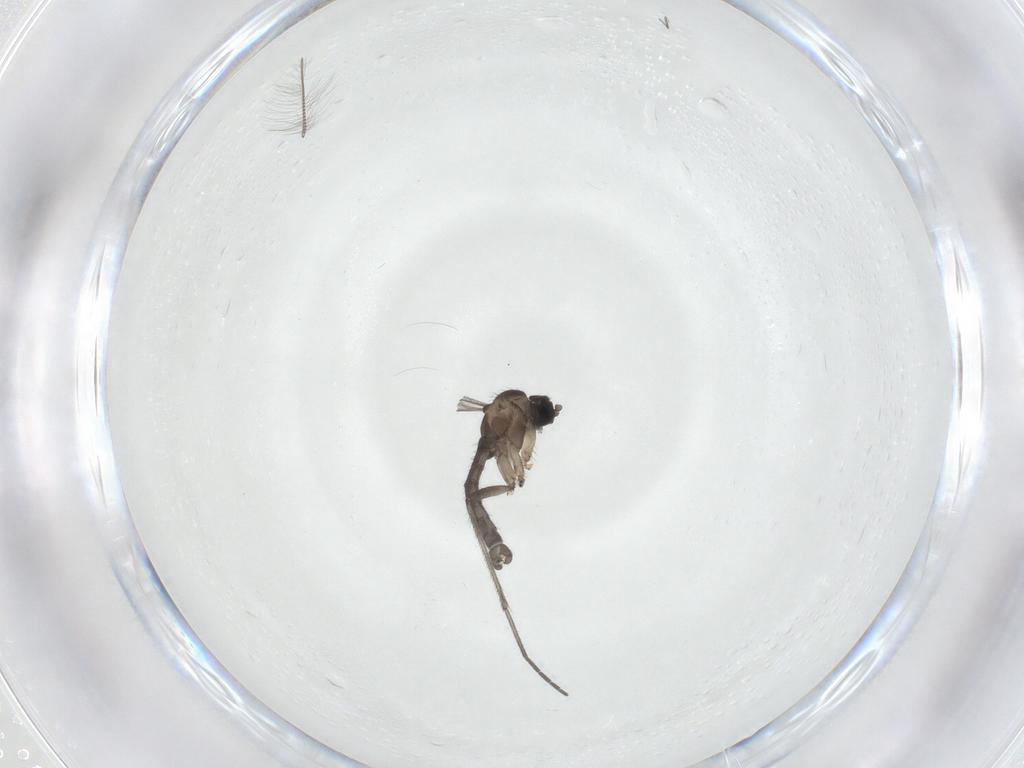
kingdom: Animalia
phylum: Arthropoda
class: Insecta
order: Diptera
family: Sciaridae
